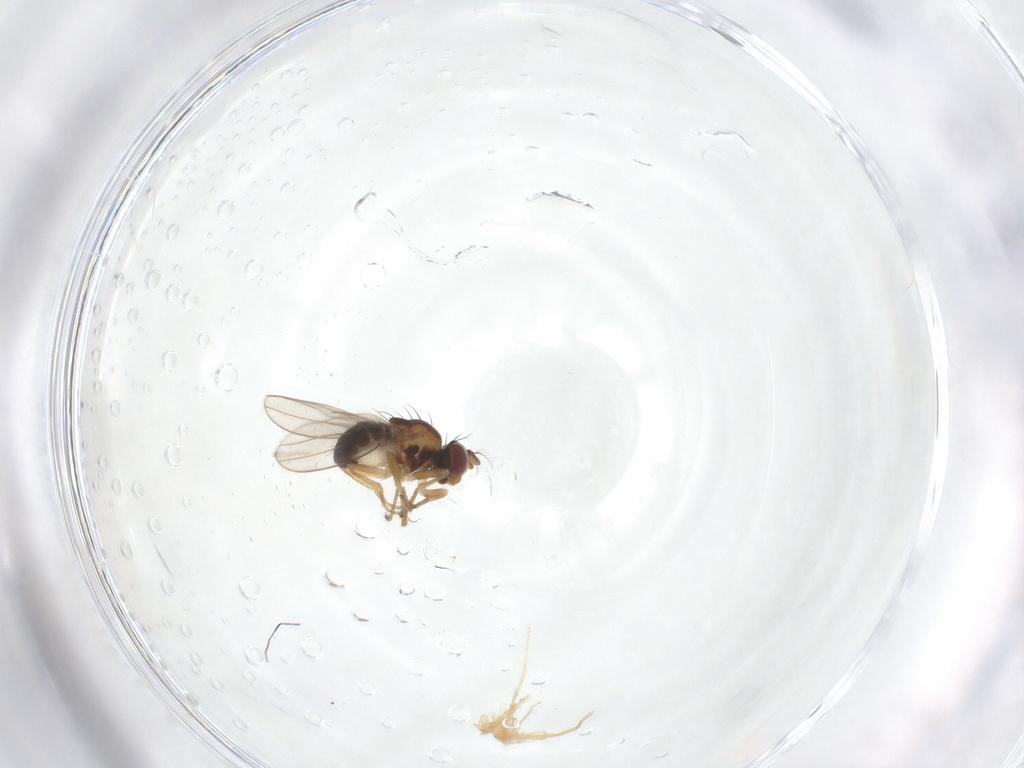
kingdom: Animalia
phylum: Arthropoda
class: Insecta
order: Diptera
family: Ephydridae
